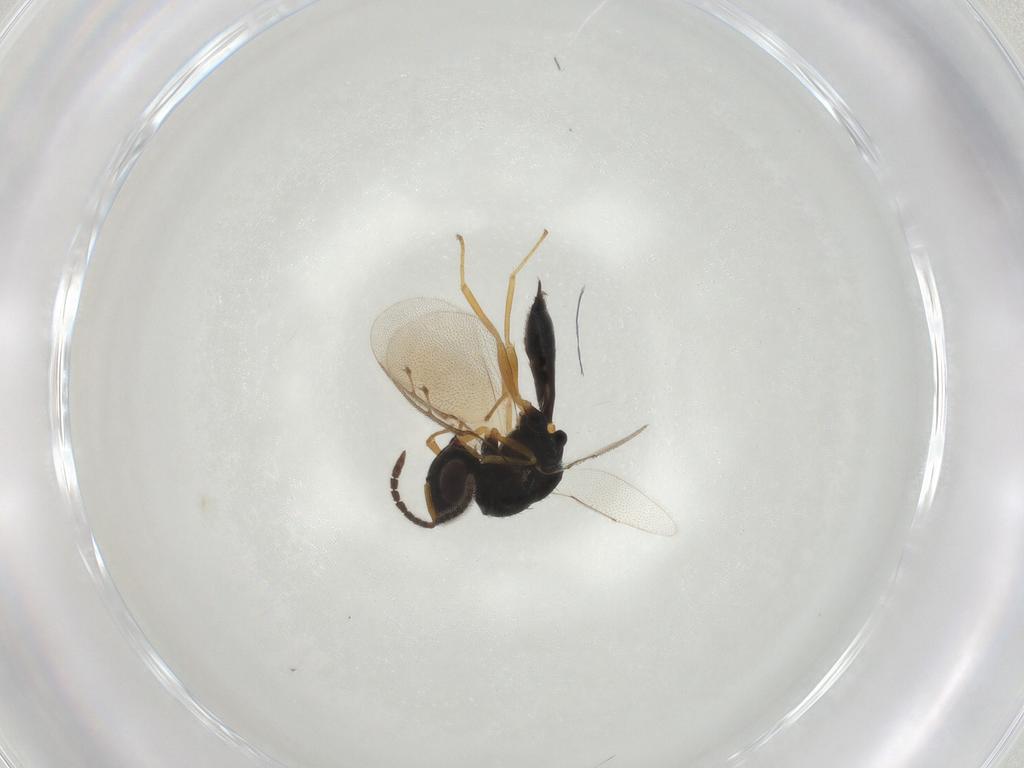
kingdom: Animalia
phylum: Arthropoda
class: Insecta
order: Hymenoptera
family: Pteromalidae
